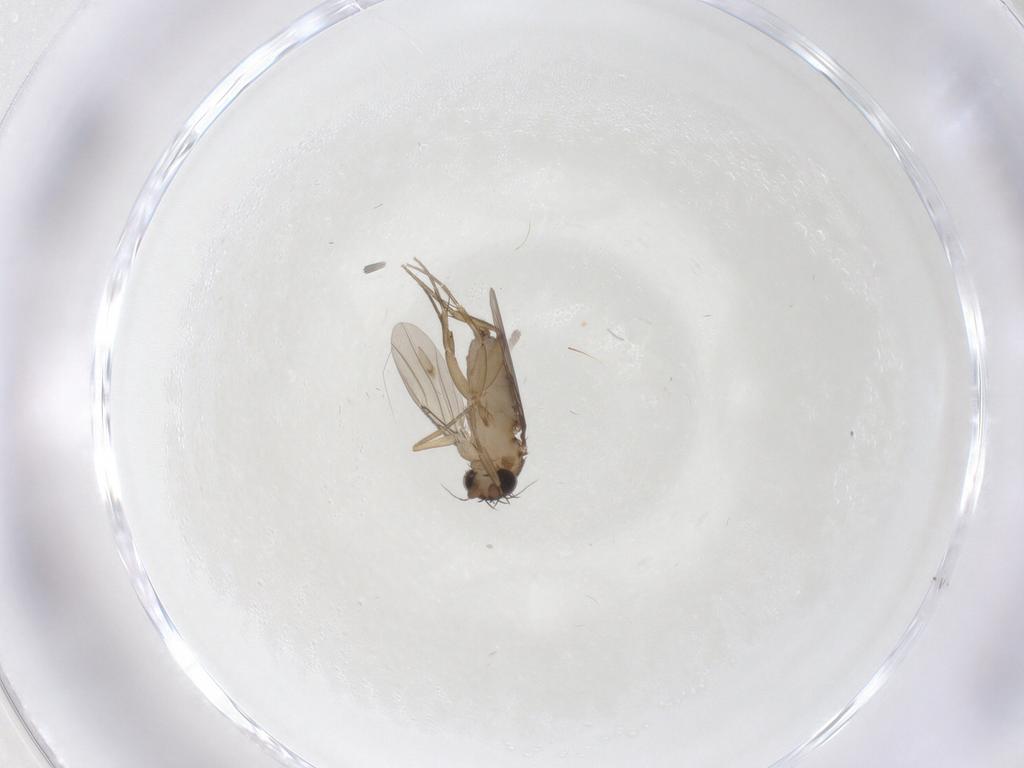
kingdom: Animalia
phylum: Arthropoda
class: Insecta
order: Diptera
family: Phoridae
